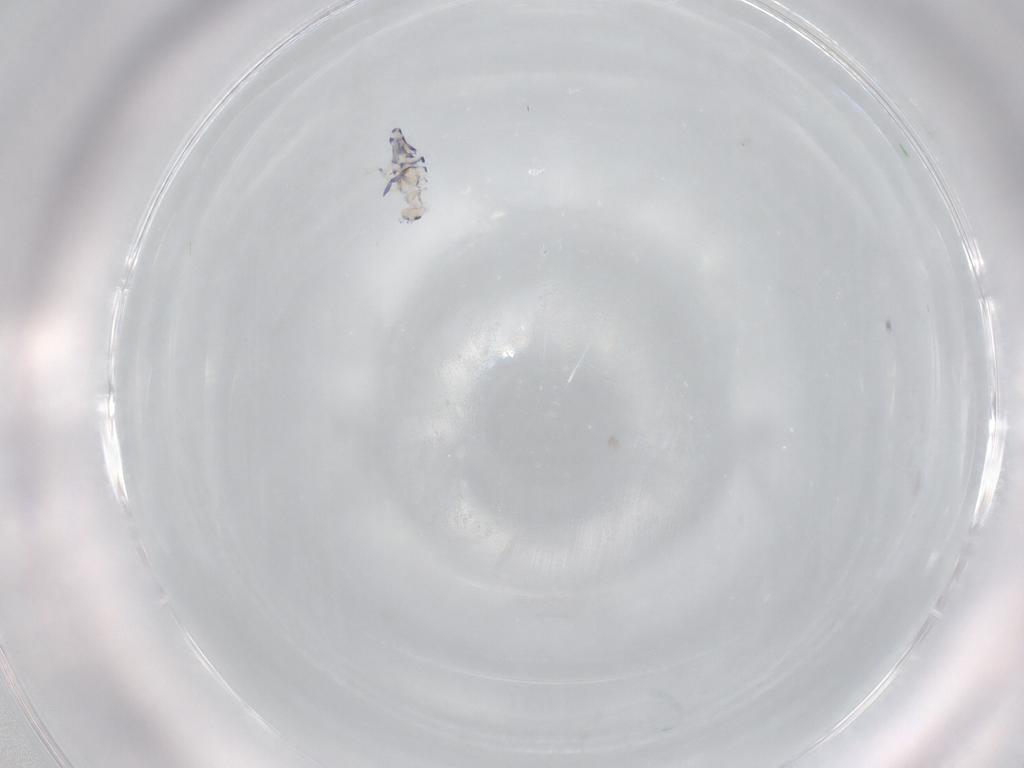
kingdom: Animalia
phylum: Arthropoda
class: Collembola
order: Entomobryomorpha
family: Entomobryidae
